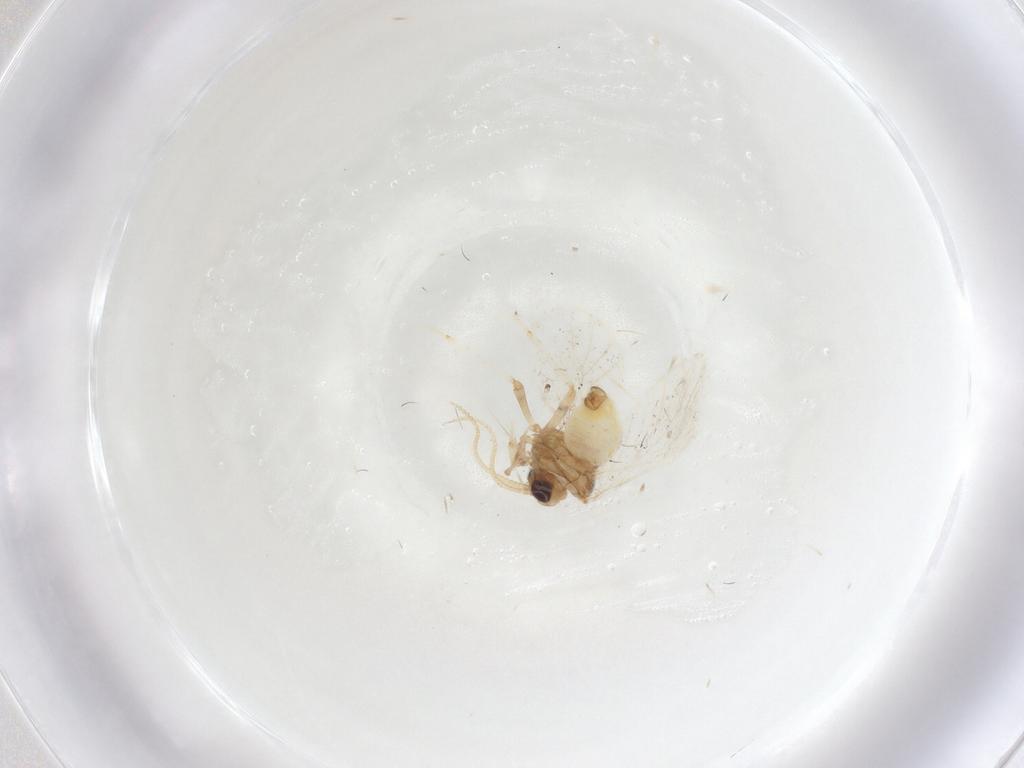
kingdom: Animalia
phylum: Arthropoda
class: Insecta
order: Neuroptera
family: Coniopterygidae
